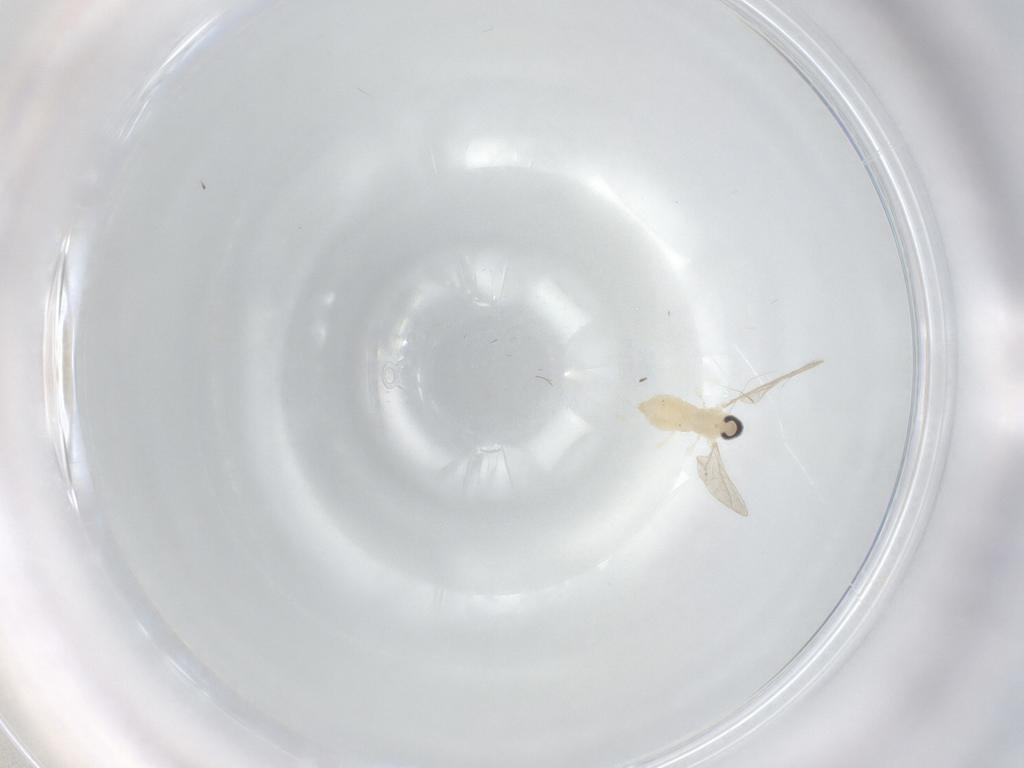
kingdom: Animalia
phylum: Arthropoda
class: Insecta
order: Diptera
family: Cecidomyiidae
